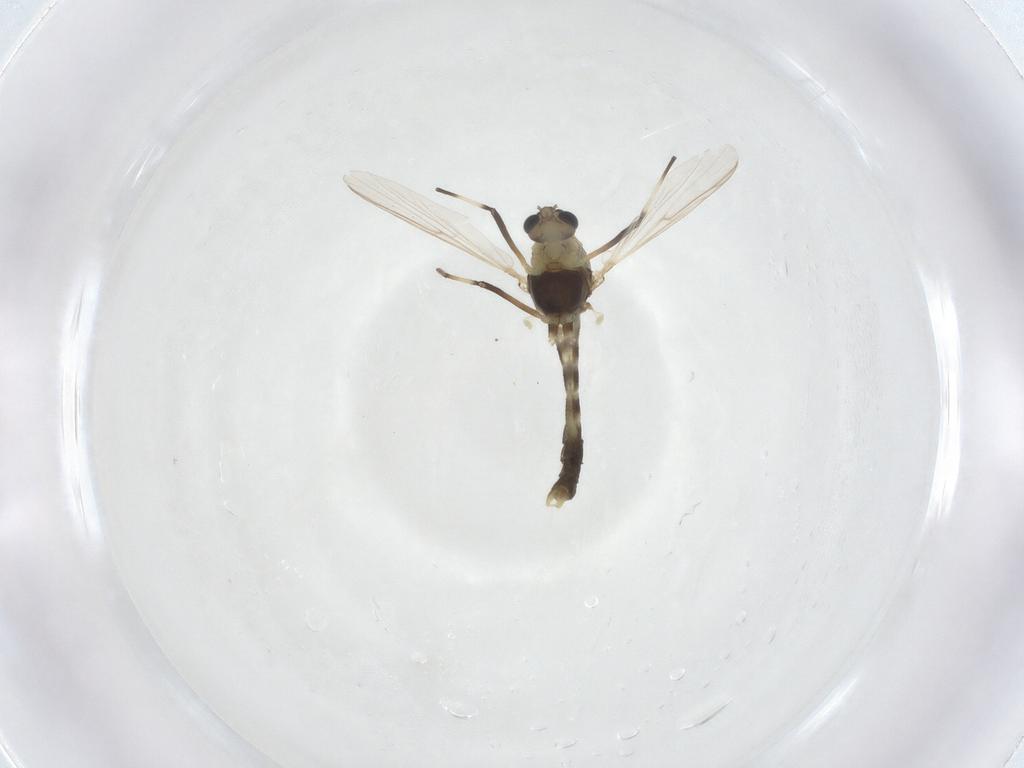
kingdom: Animalia
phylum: Arthropoda
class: Insecta
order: Diptera
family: Chironomidae
